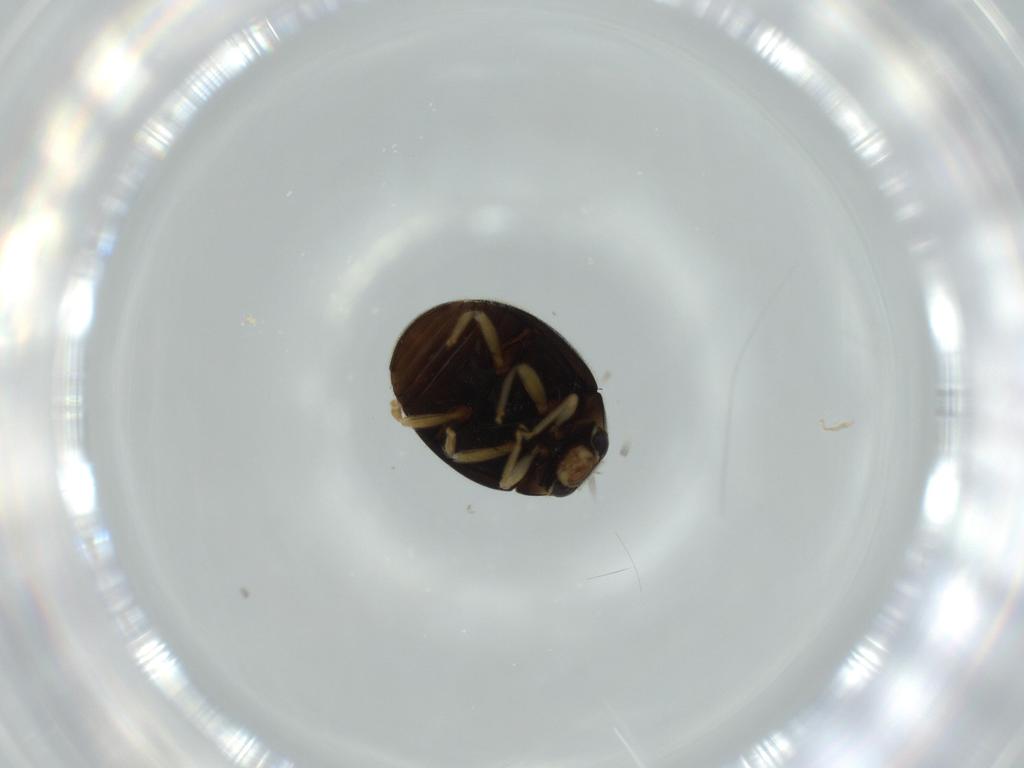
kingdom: Animalia
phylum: Arthropoda
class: Insecta
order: Coleoptera
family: Coccinellidae
